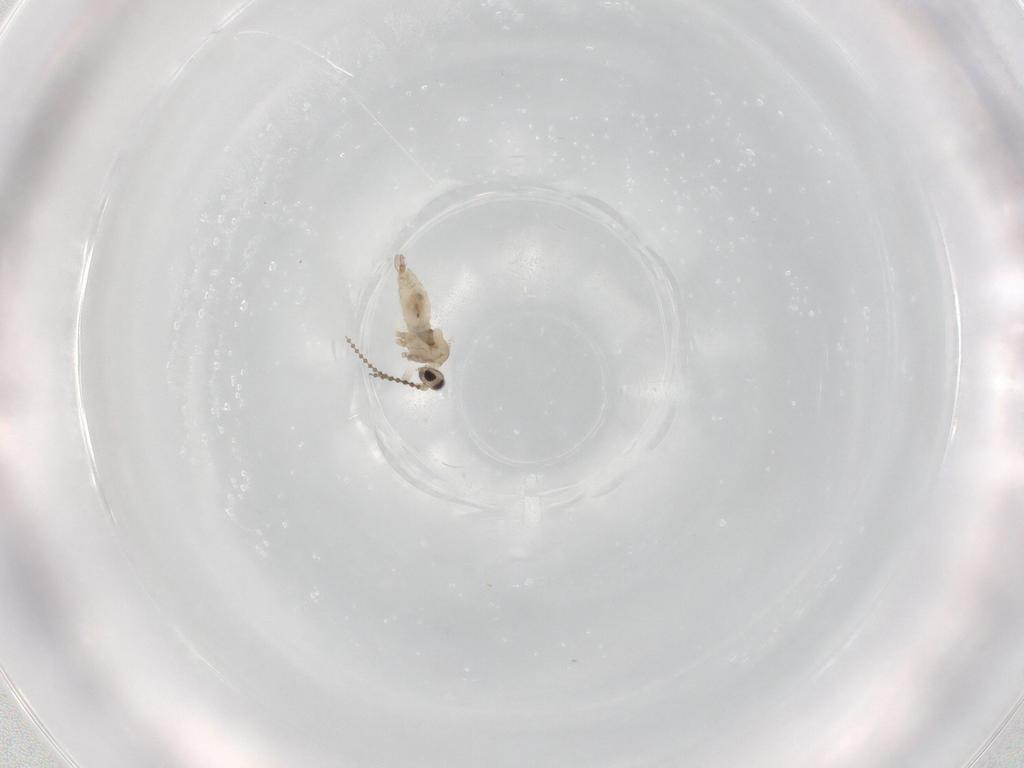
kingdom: Animalia
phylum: Arthropoda
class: Insecta
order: Diptera
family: Cecidomyiidae
